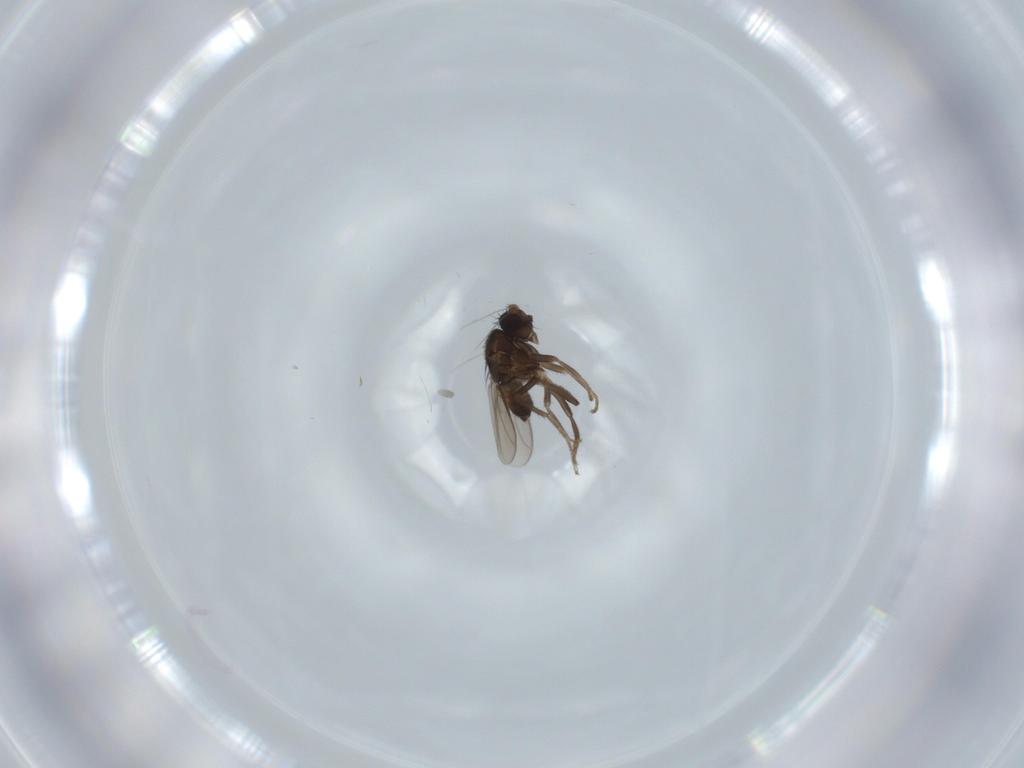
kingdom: Animalia
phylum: Arthropoda
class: Insecta
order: Diptera
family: Sphaeroceridae
